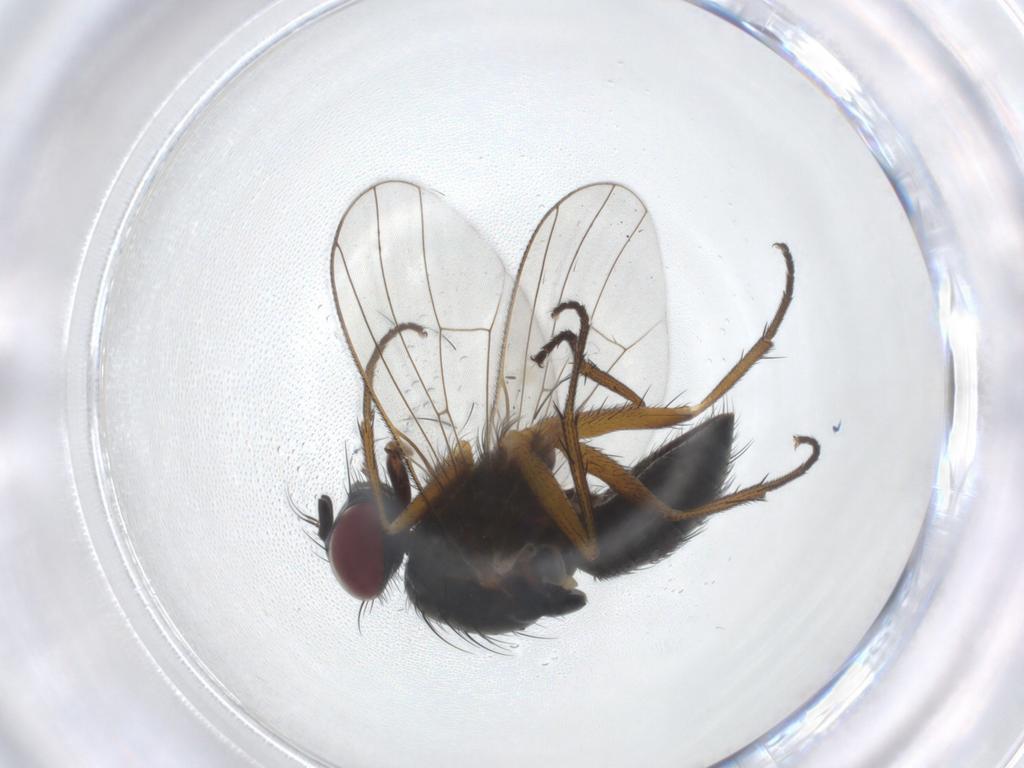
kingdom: Animalia
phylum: Arthropoda
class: Insecta
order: Diptera
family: Muscidae
